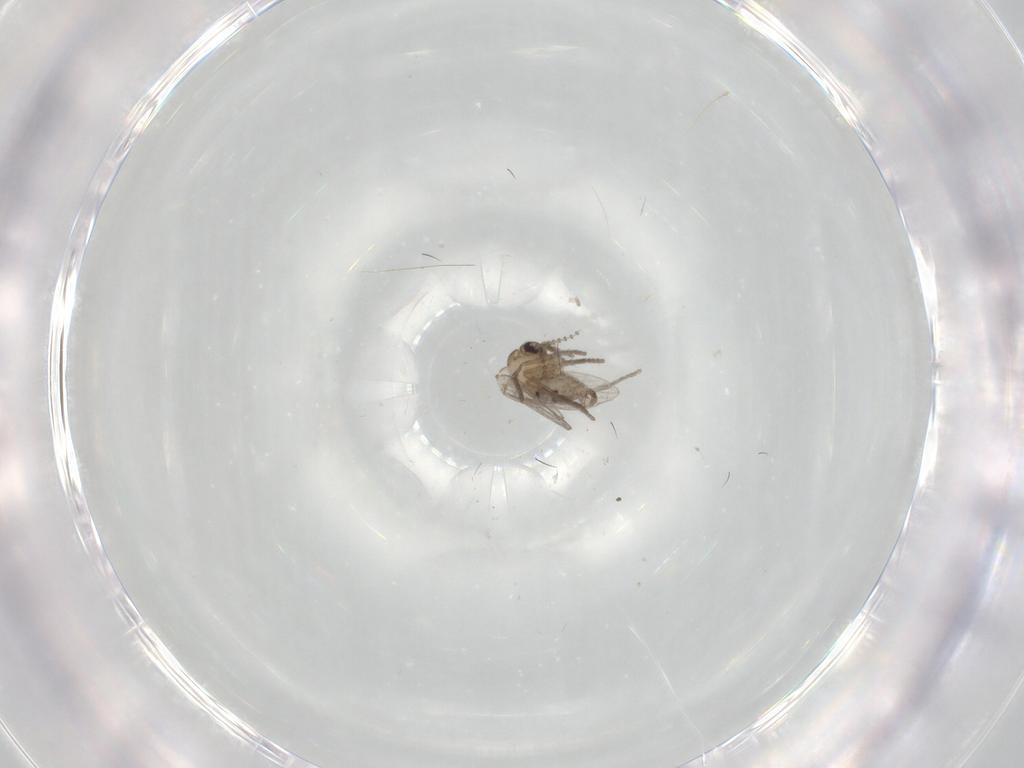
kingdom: Animalia
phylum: Arthropoda
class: Insecta
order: Diptera
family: Psychodidae
